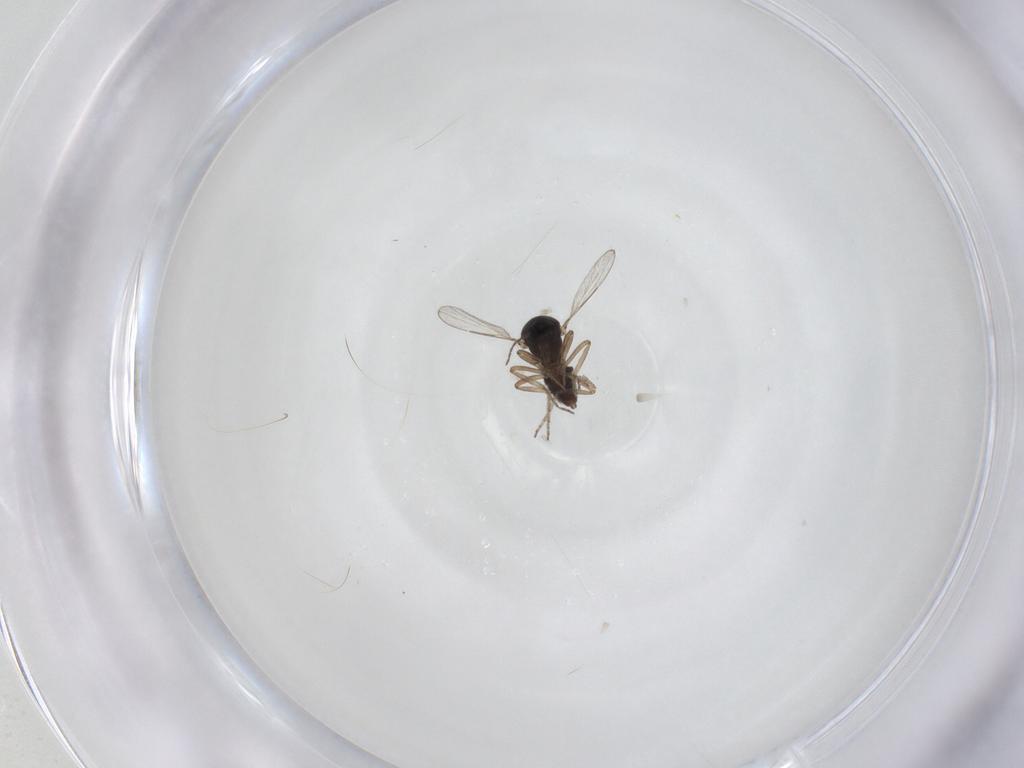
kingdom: Animalia
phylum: Arthropoda
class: Insecta
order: Diptera
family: Ceratopogonidae
